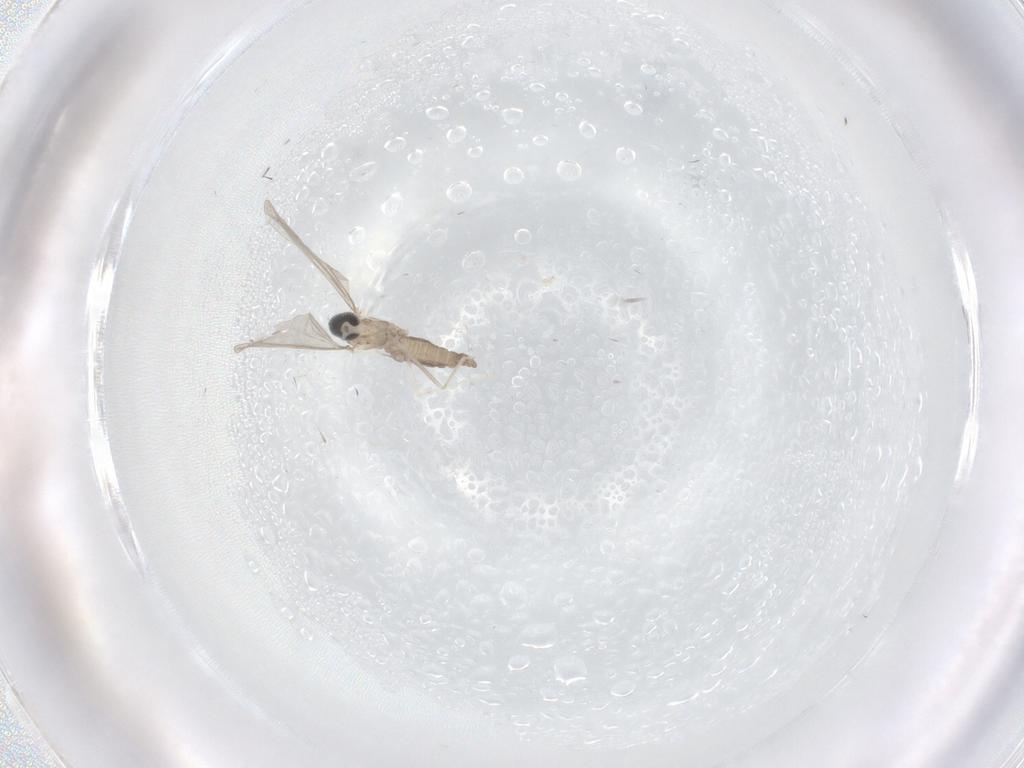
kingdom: Animalia
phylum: Arthropoda
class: Insecta
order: Diptera
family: Cecidomyiidae
